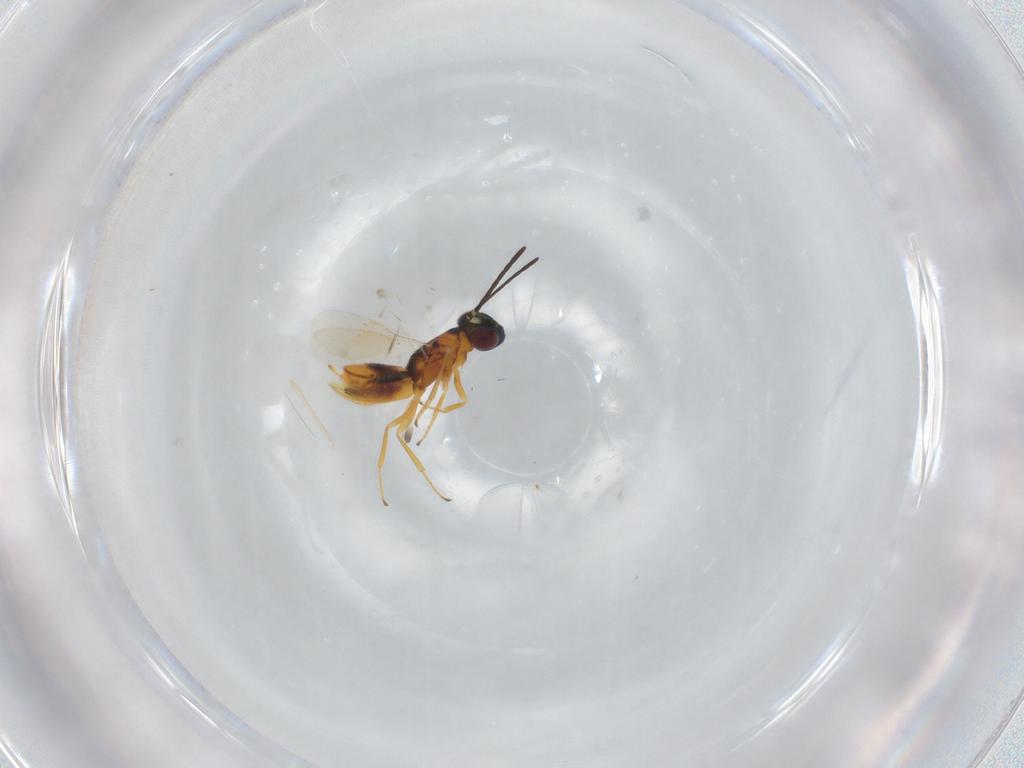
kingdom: Animalia
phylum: Arthropoda
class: Insecta
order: Hymenoptera
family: Encyrtidae
